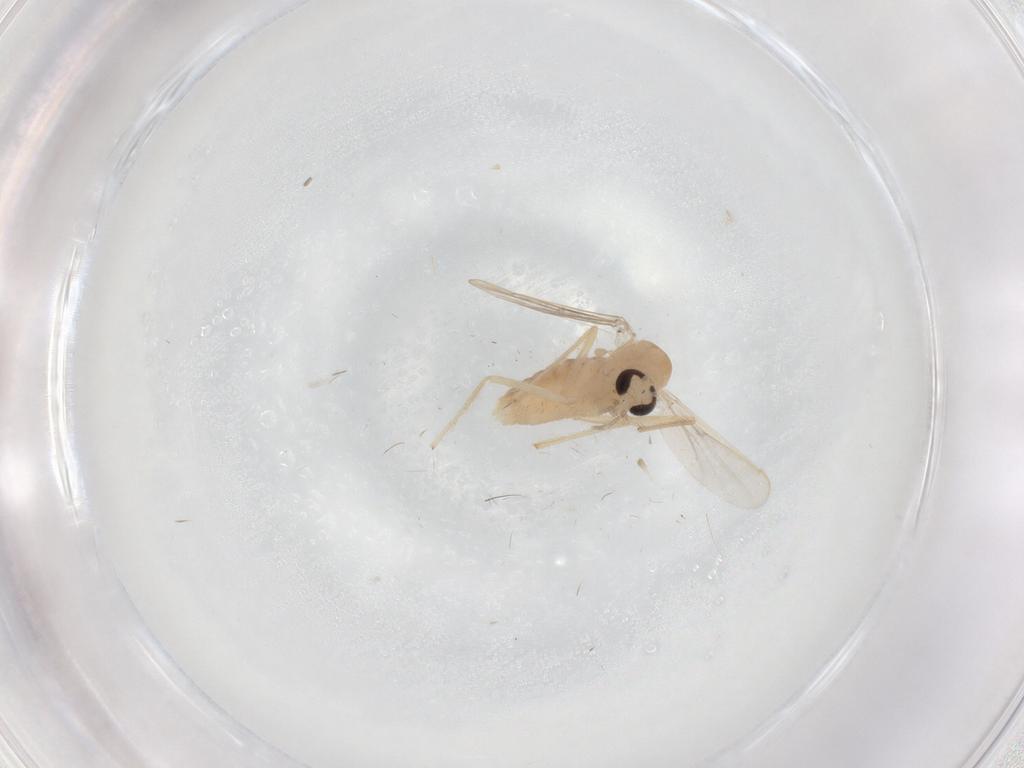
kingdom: Animalia
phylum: Arthropoda
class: Insecta
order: Diptera
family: Chironomidae
